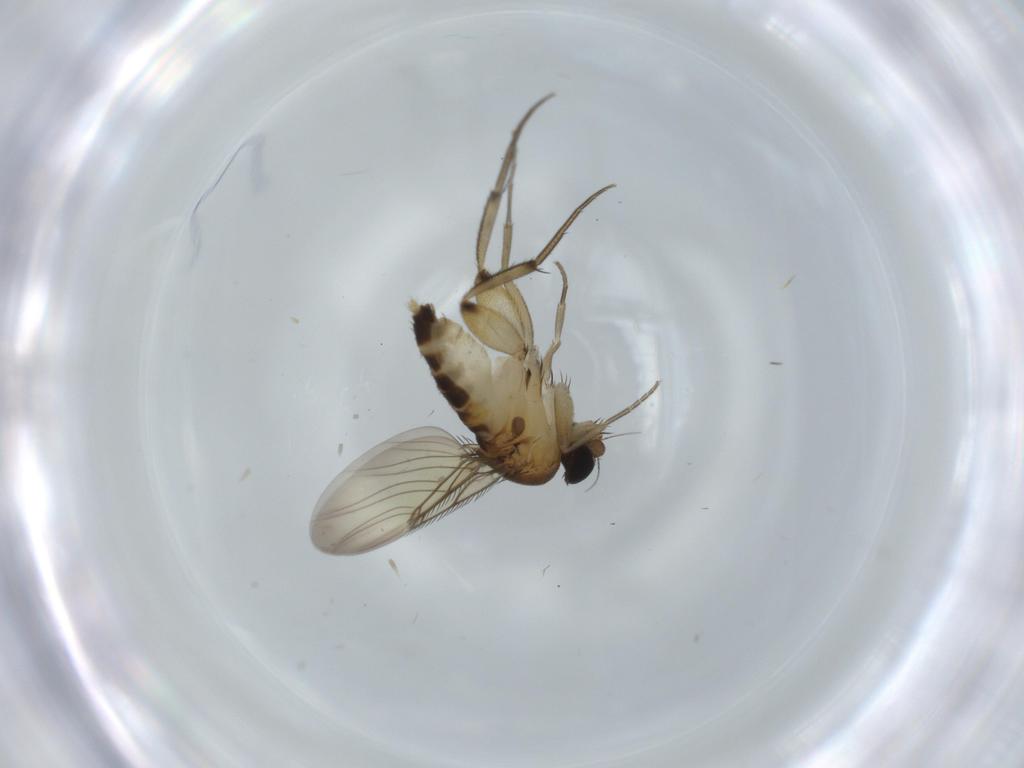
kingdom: Animalia
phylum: Arthropoda
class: Insecta
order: Diptera
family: Phoridae
